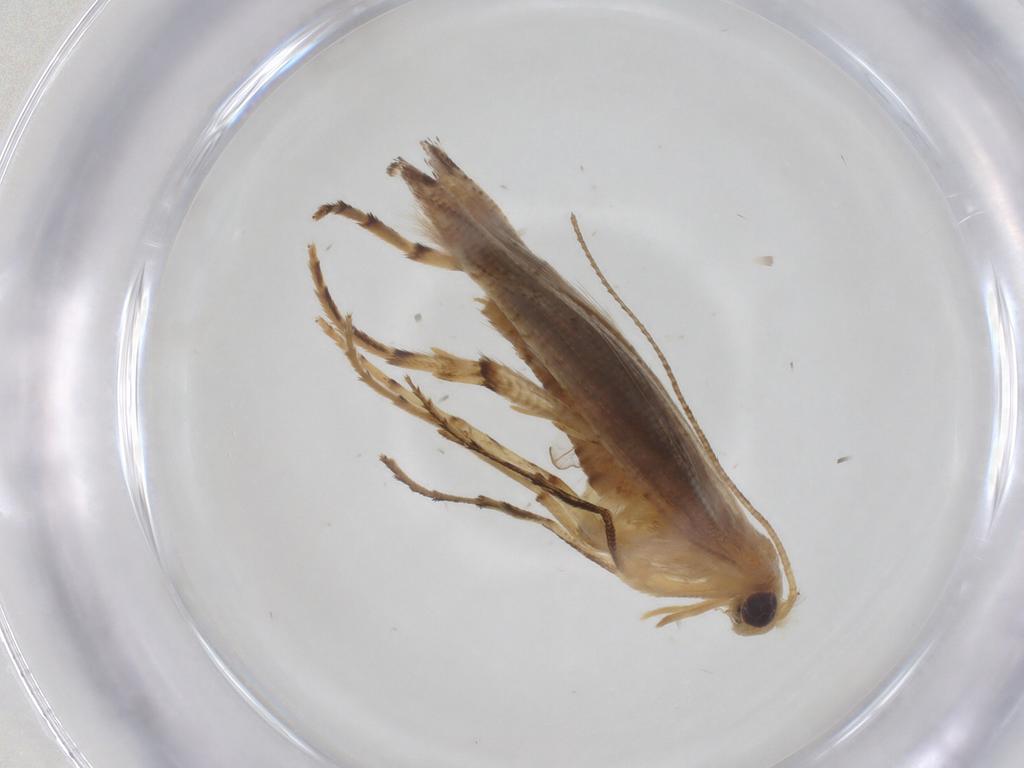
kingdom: Animalia
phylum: Arthropoda
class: Insecta
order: Lepidoptera
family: Argyresthiidae
